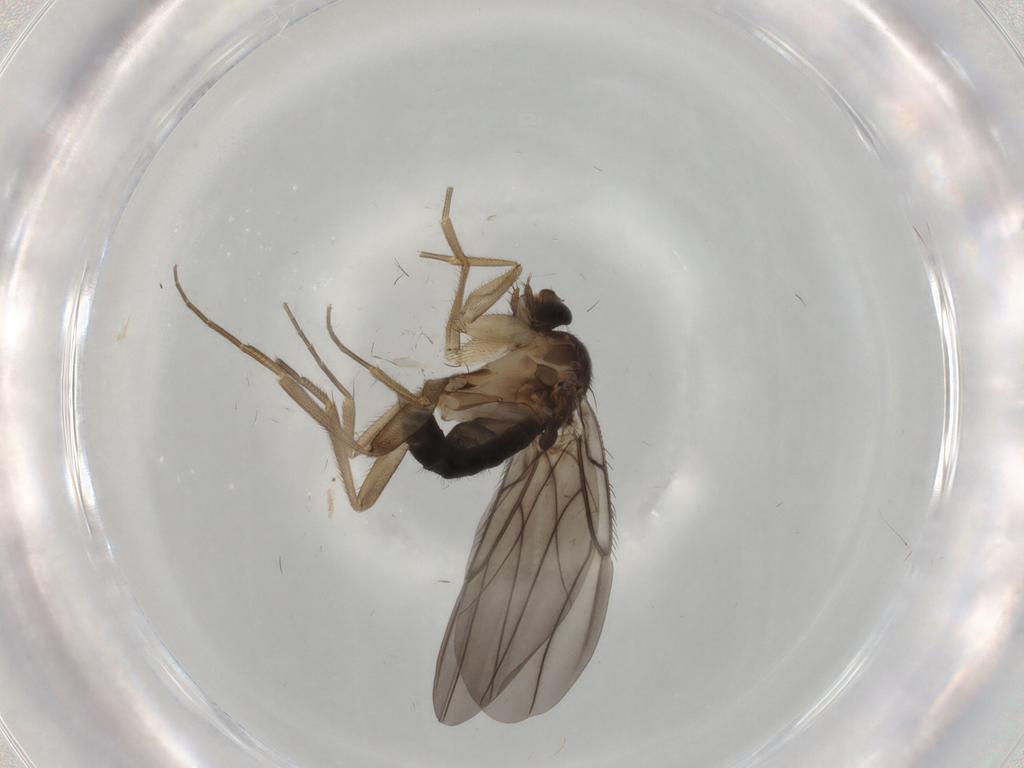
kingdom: Animalia
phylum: Arthropoda
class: Insecta
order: Diptera
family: Phoridae
